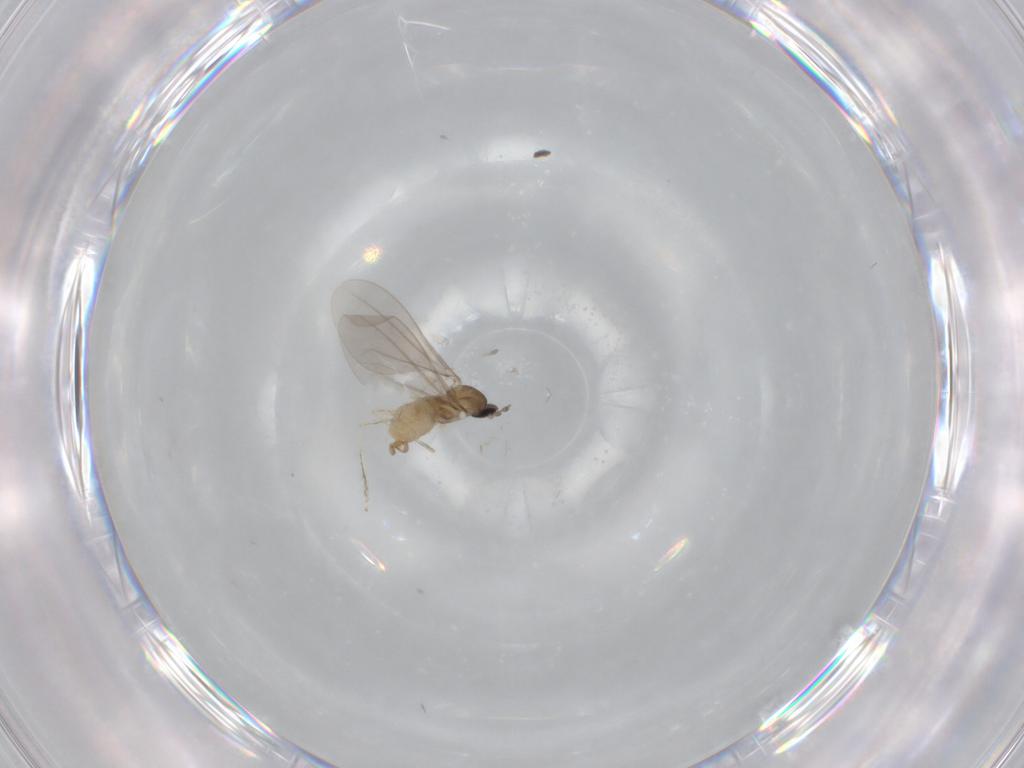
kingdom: Animalia
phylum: Arthropoda
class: Insecta
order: Diptera
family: Cecidomyiidae
